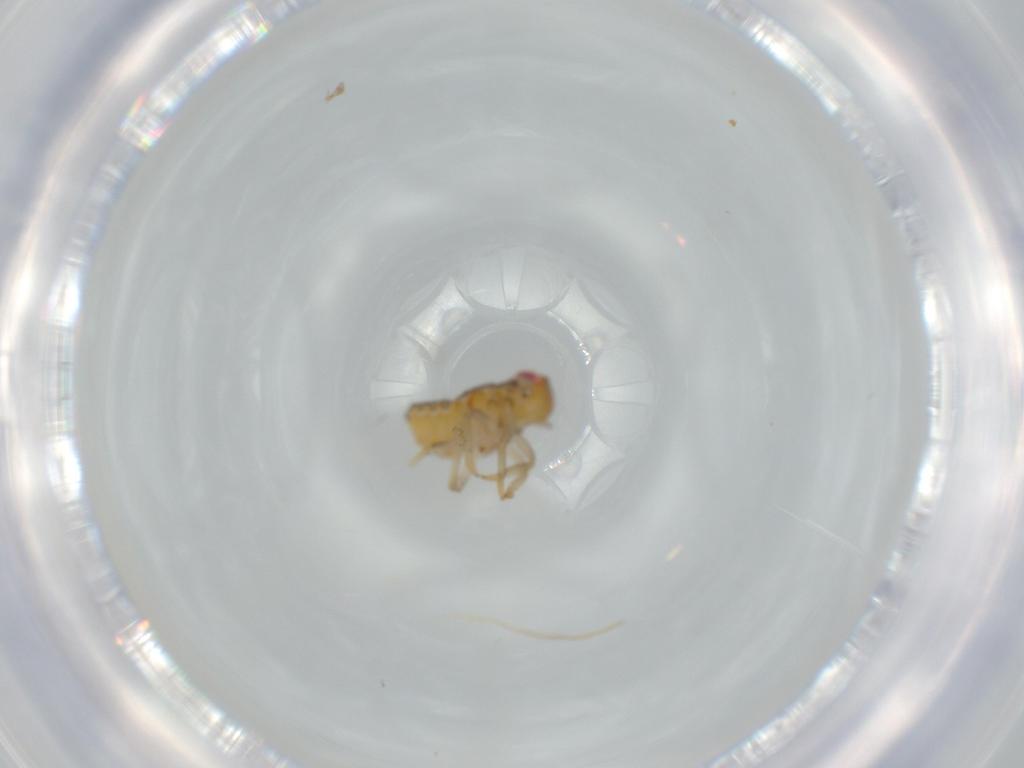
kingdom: Animalia
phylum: Arthropoda
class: Insecta
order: Hemiptera
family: Issidae
